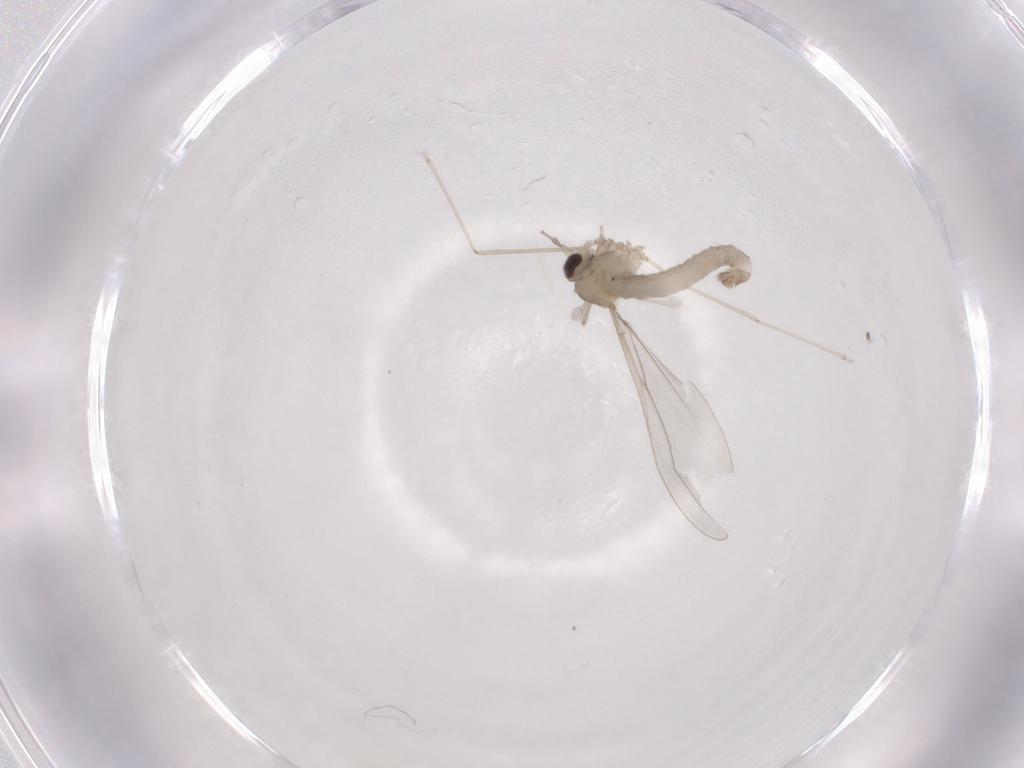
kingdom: Animalia
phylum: Arthropoda
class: Insecta
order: Diptera
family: Cecidomyiidae
